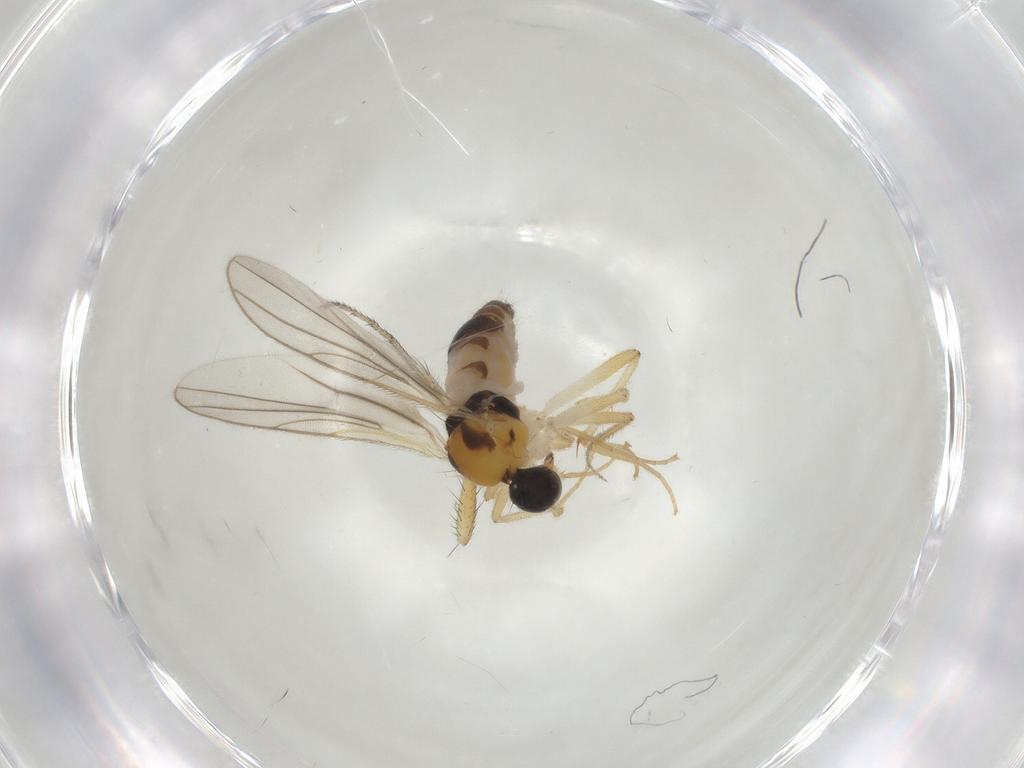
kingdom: Animalia
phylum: Arthropoda
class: Insecta
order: Diptera
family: Hybotidae
